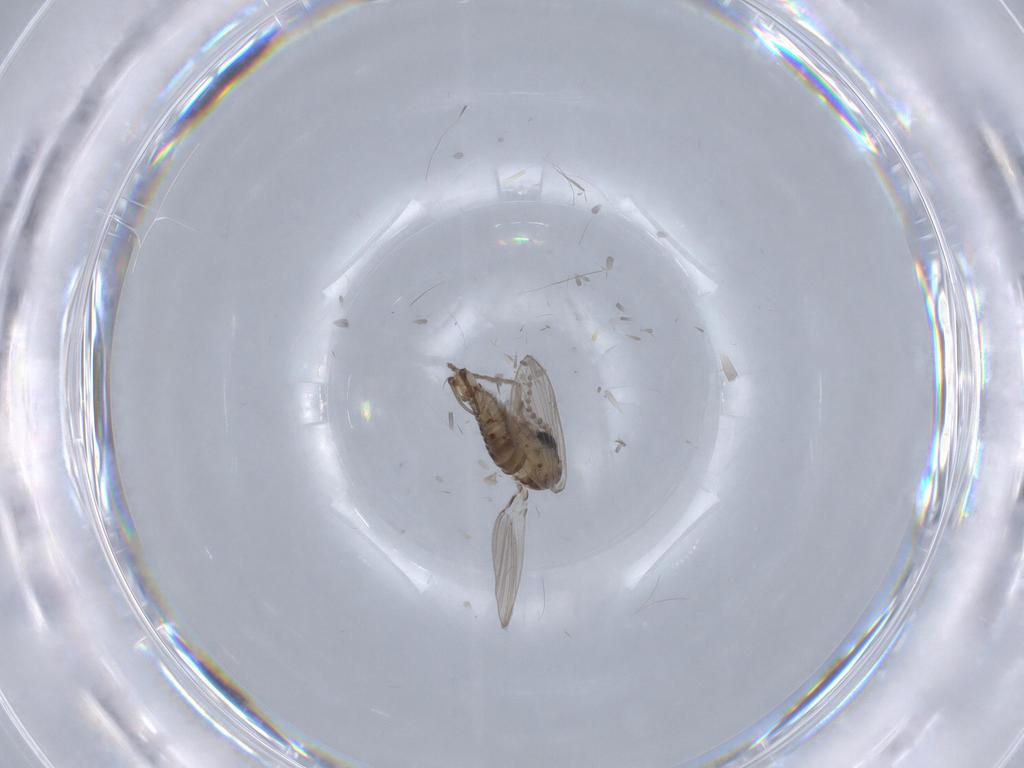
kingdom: Animalia
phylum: Arthropoda
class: Insecta
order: Diptera
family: Psychodidae
